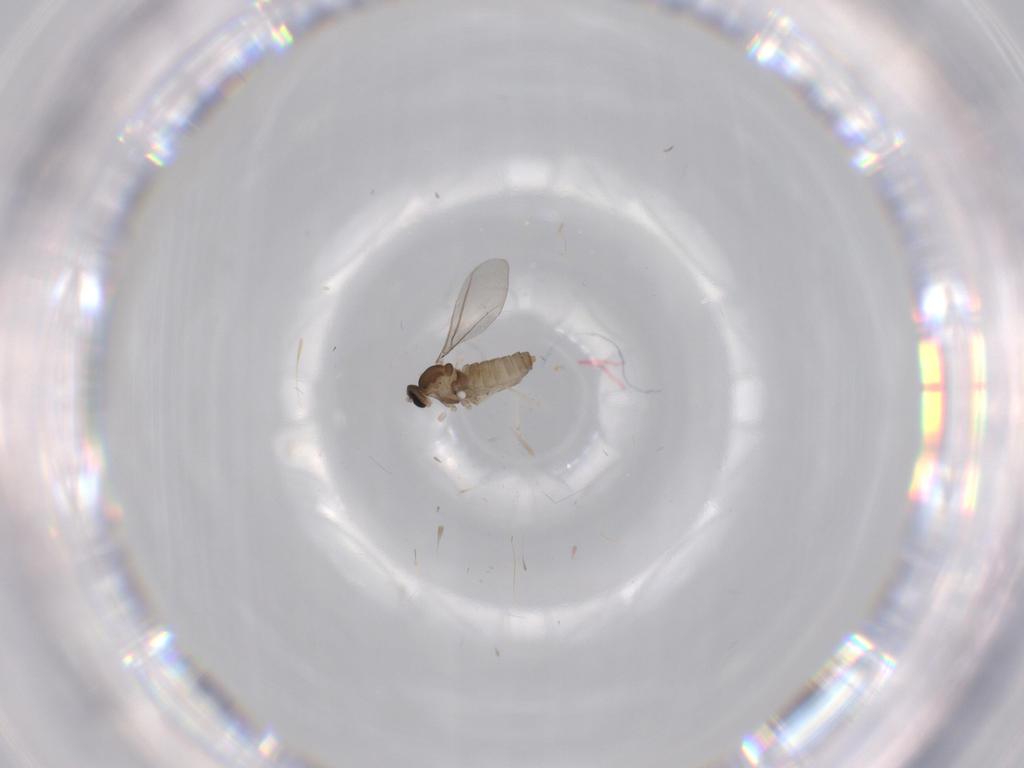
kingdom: Animalia
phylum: Arthropoda
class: Insecta
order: Diptera
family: Cecidomyiidae
